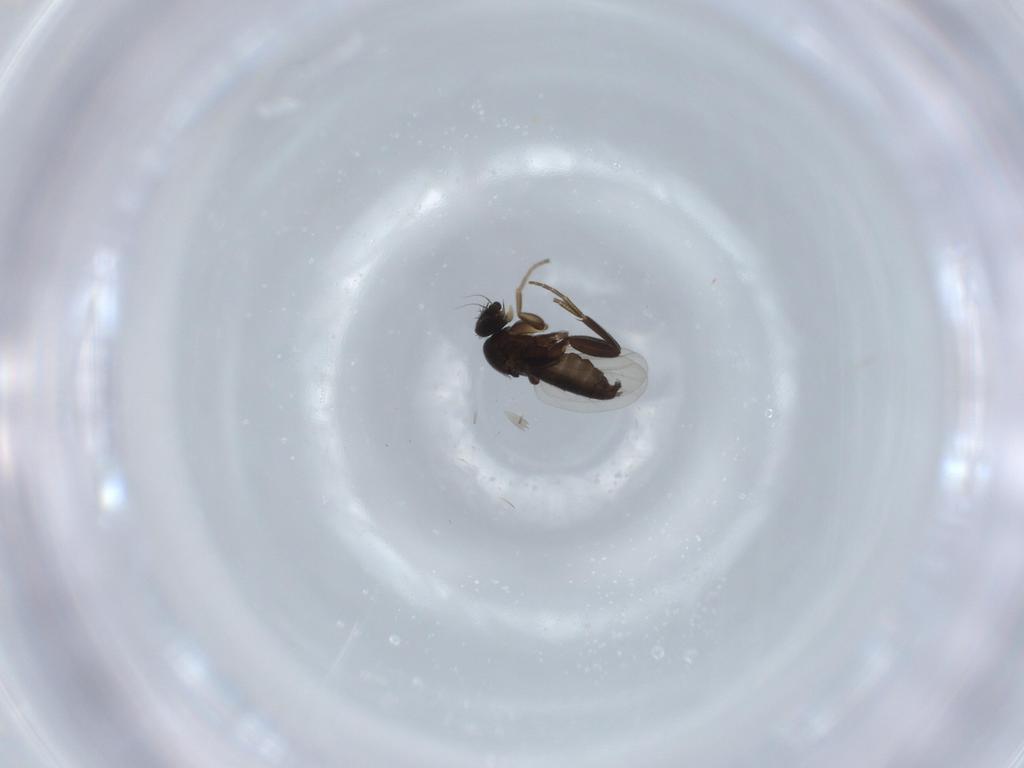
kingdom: Animalia
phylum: Arthropoda
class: Insecta
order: Diptera
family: Phoridae
